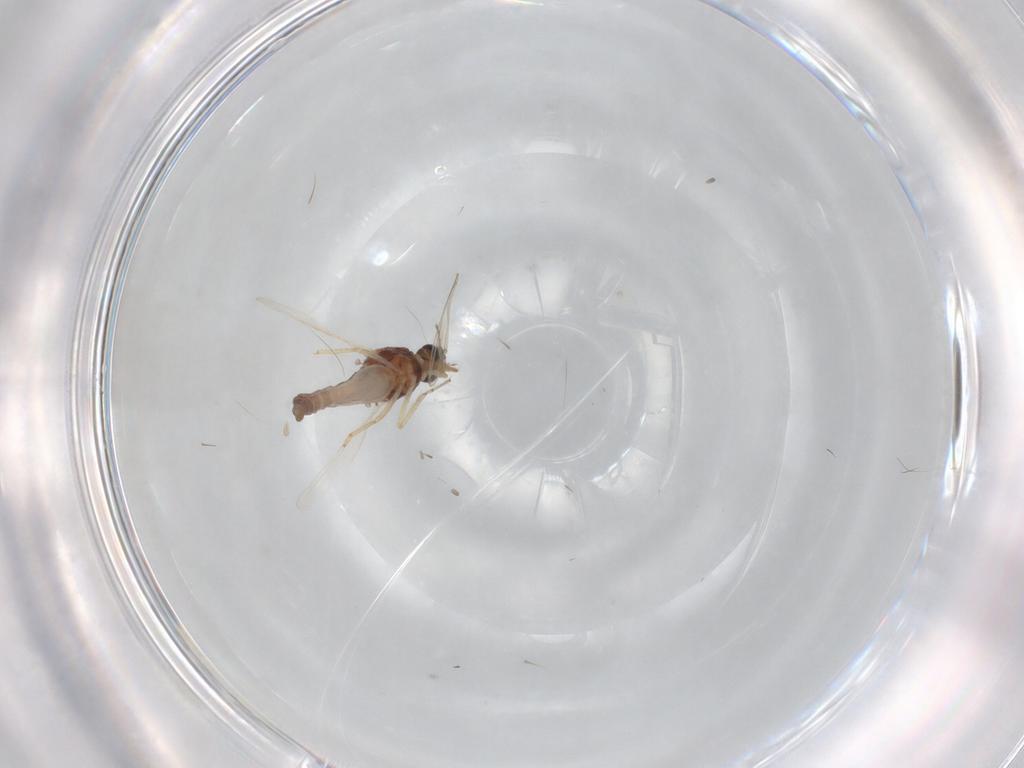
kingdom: Animalia
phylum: Arthropoda
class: Insecta
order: Diptera
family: Ceratopogonidae
